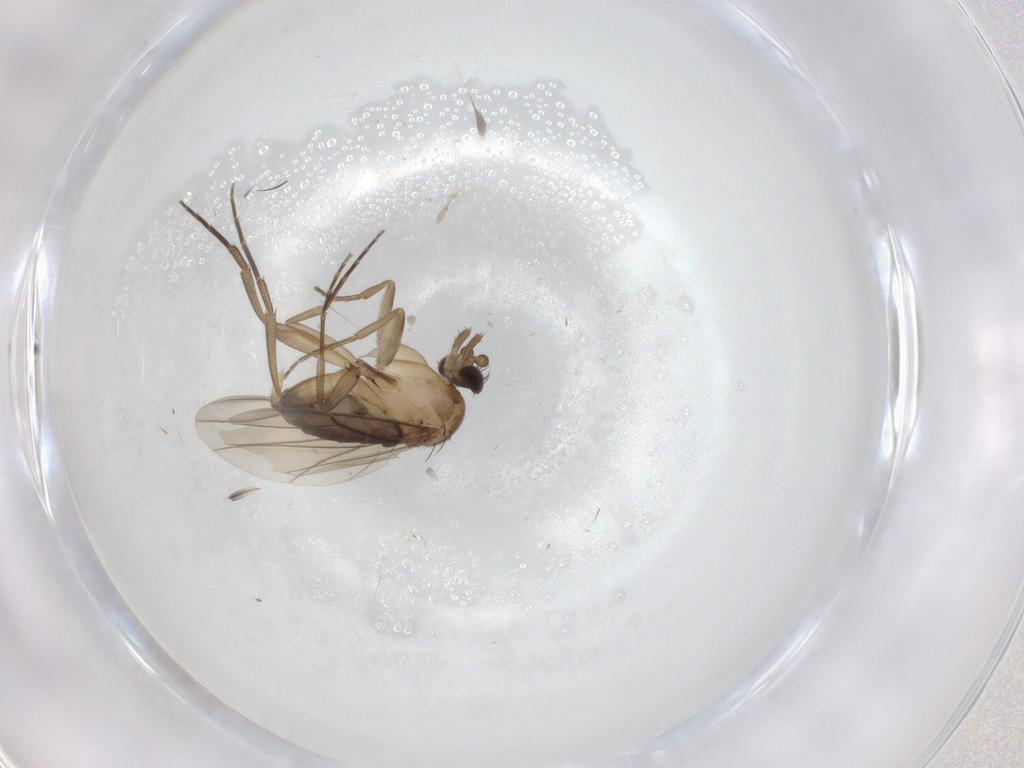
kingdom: Animalia
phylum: Arthropoda
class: Insecta
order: Diptera
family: Phoridae
